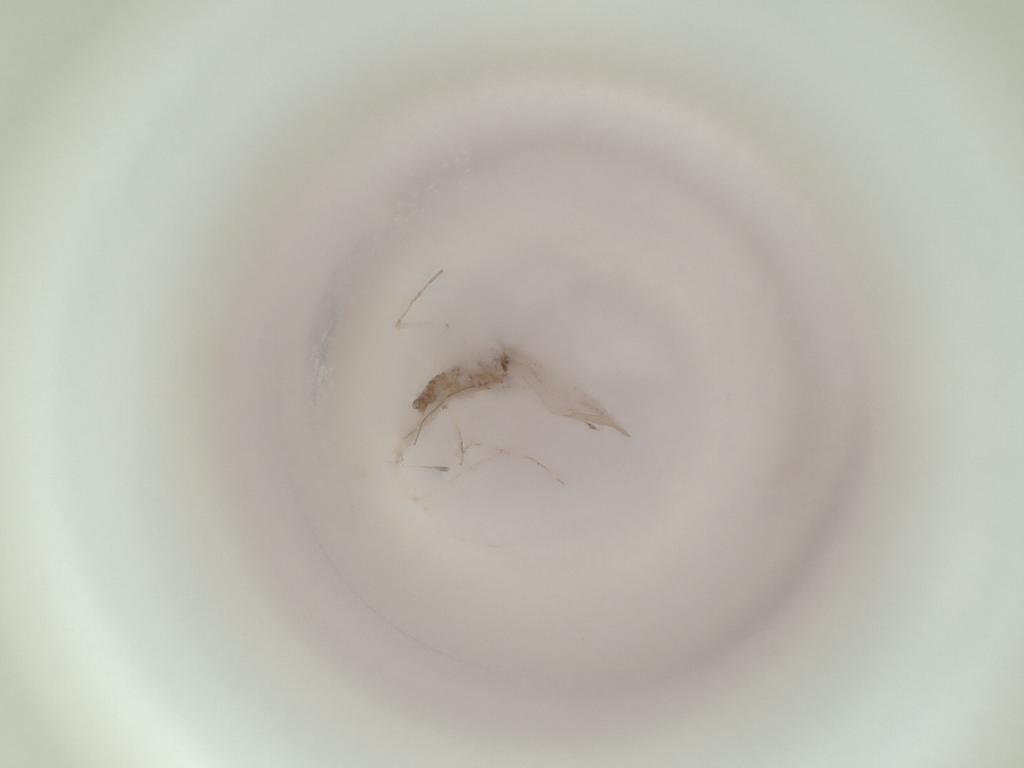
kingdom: Animalia
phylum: Arthropoda
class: Insecta
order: Diptera
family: Cecidomyiidae
